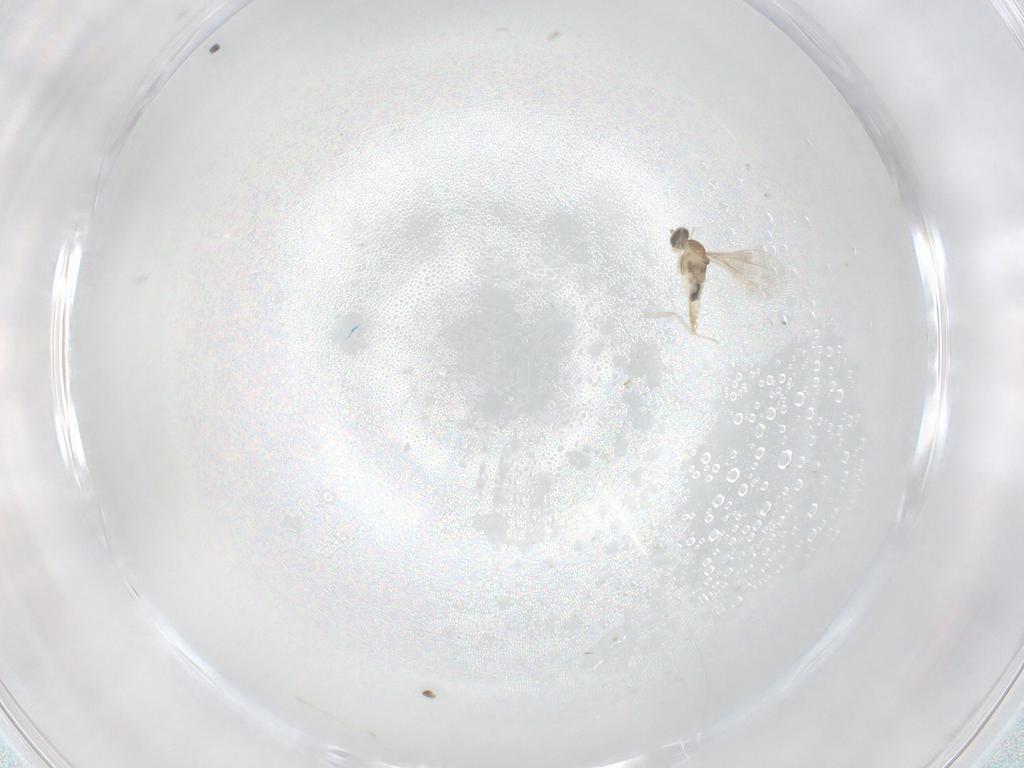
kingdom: Animalia
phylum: Arthropoda
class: Insecta
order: Diptera
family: Cecidomyiidae
